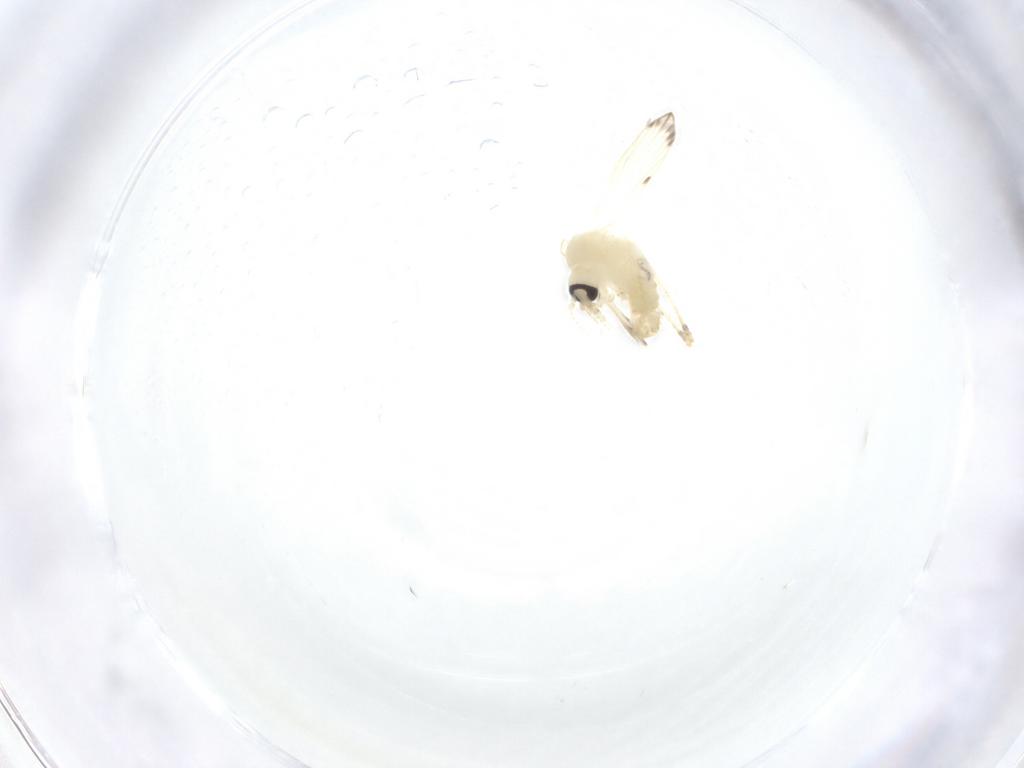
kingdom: Animalia
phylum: Arthropoda
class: Insecta
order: Diptera
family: Psychodidae
